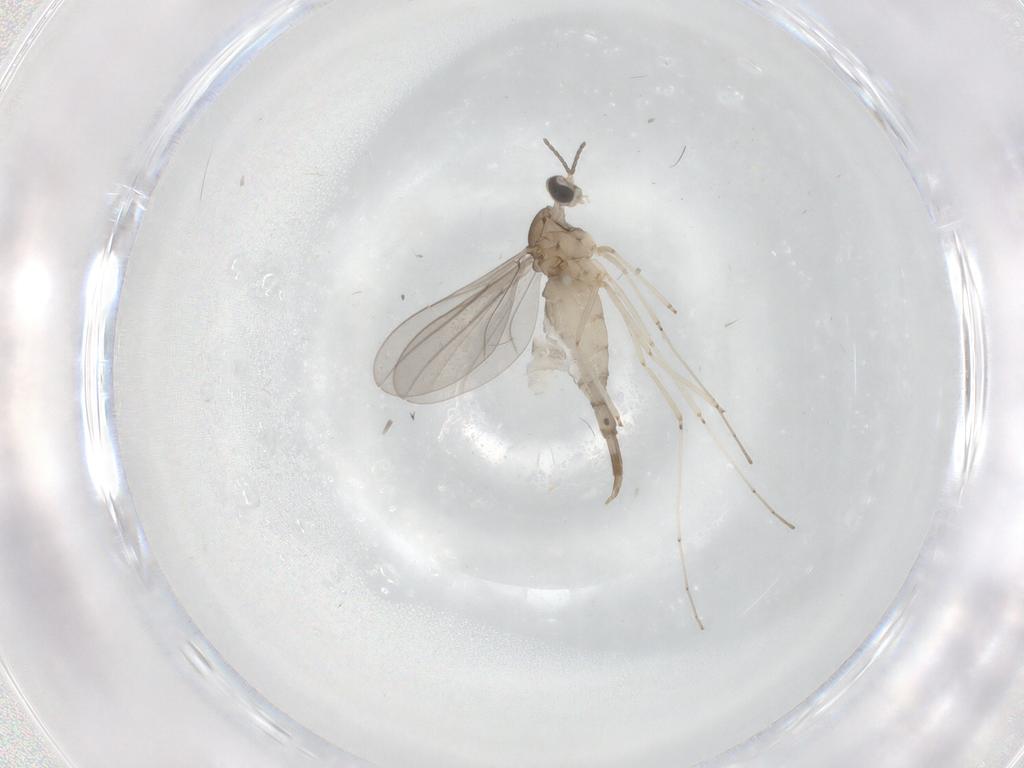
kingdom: Animalia
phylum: Arthropoda
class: Insecta
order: Diptera
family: Cecidomyiidae
